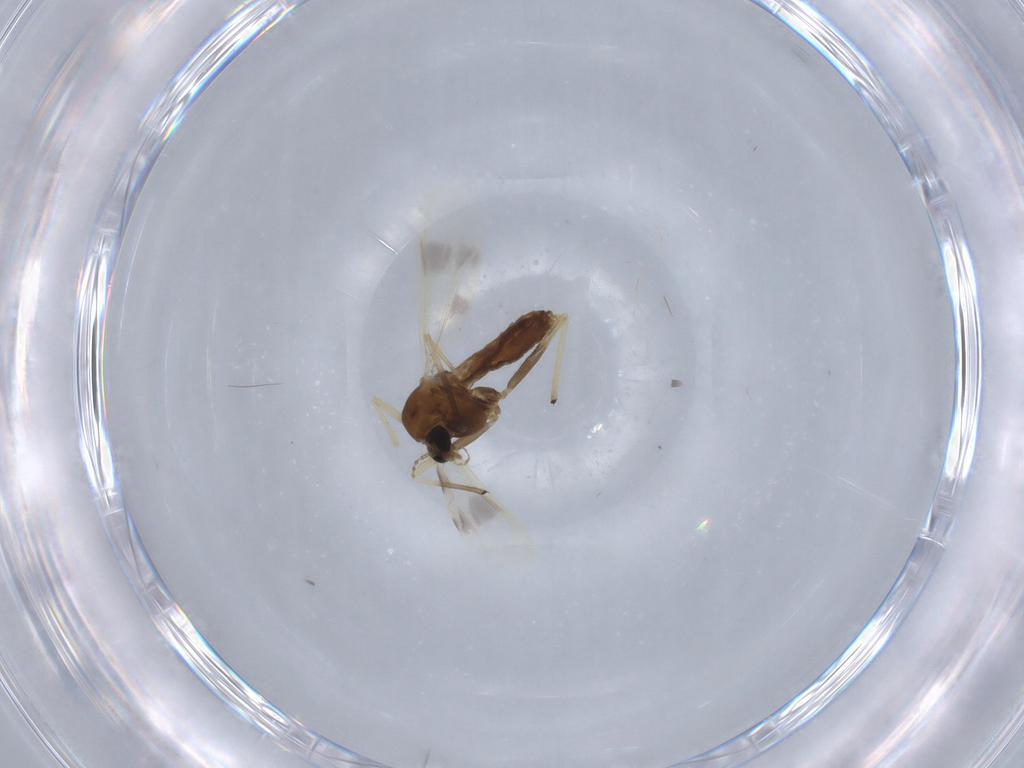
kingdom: Animalia
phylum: Arthropoda
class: Insecta
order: Diptera
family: Chironomidae
